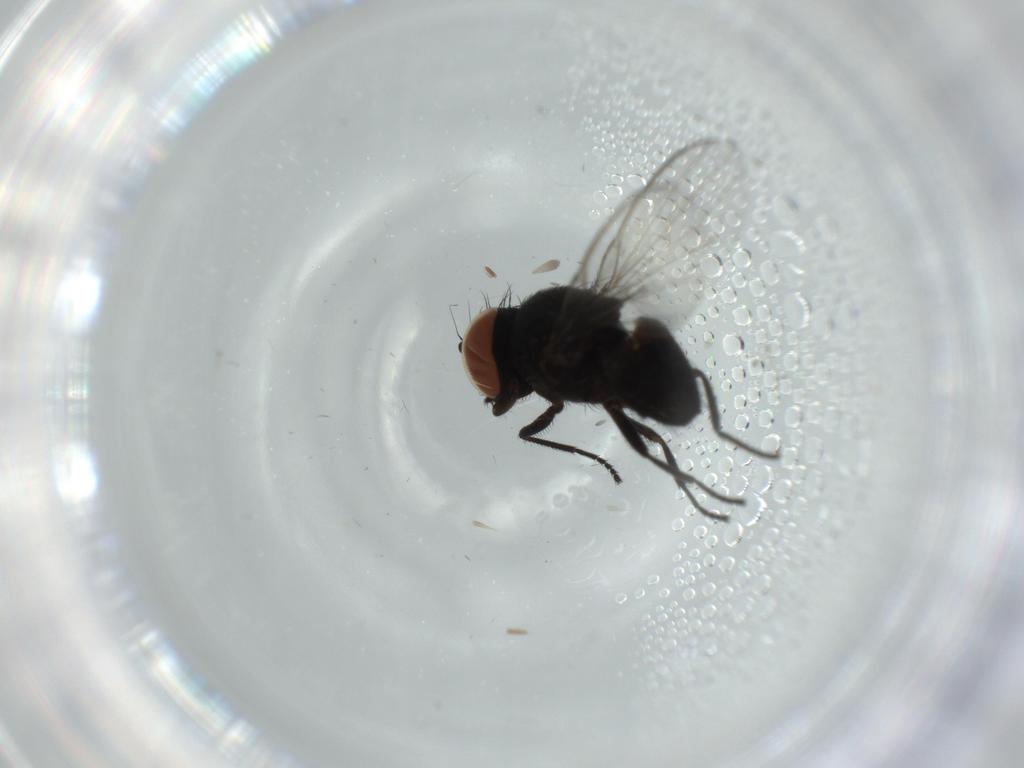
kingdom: Animalia
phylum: Arthropoda
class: Insecta
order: Diptera
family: Milichiidae
